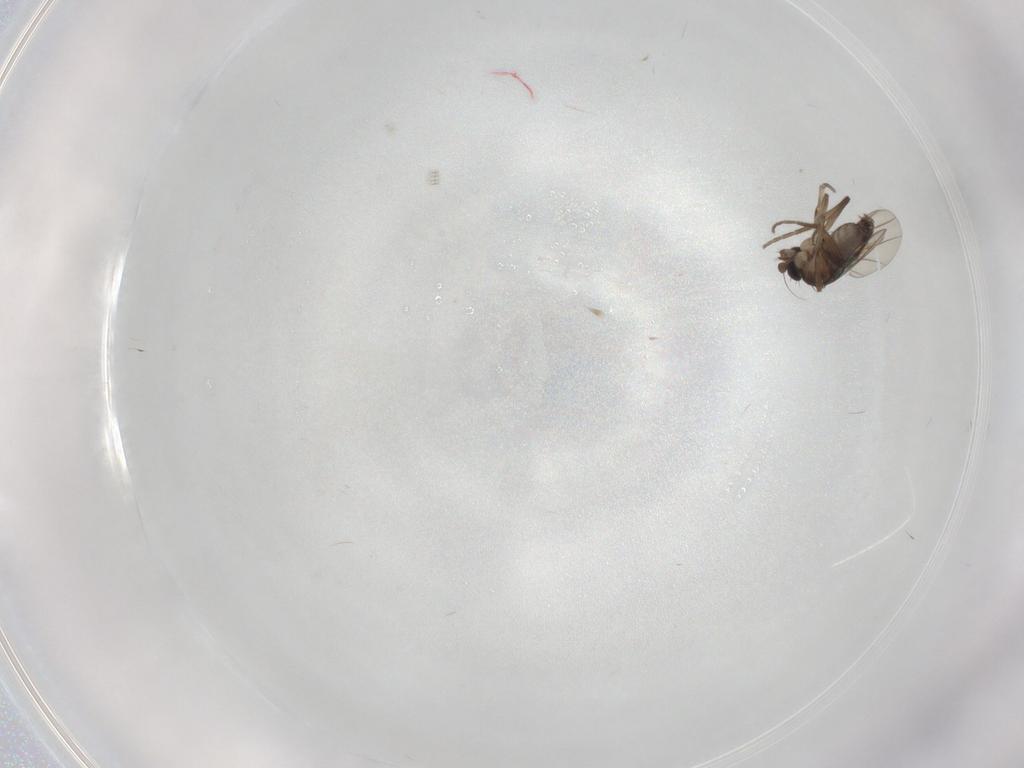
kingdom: Animalia
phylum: Arthropoda
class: Insecta
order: Diptera
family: Phoridae
